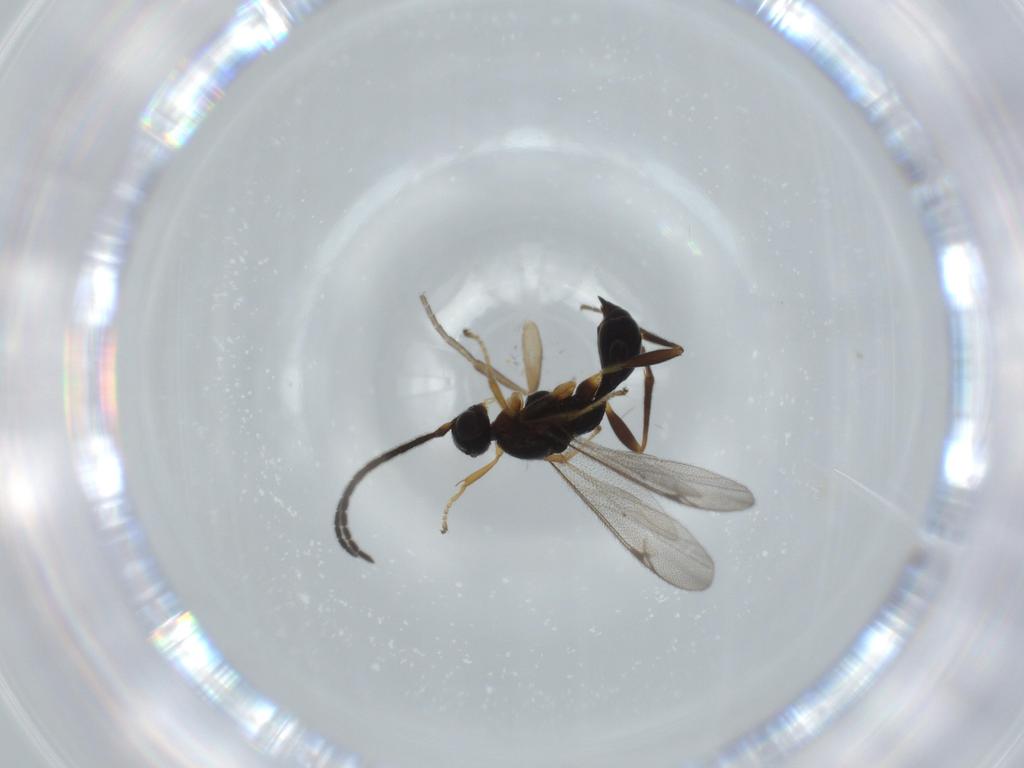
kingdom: Animalia
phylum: Arthropoda
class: Insecta
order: Hymenoptera
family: Proctotrupidae
